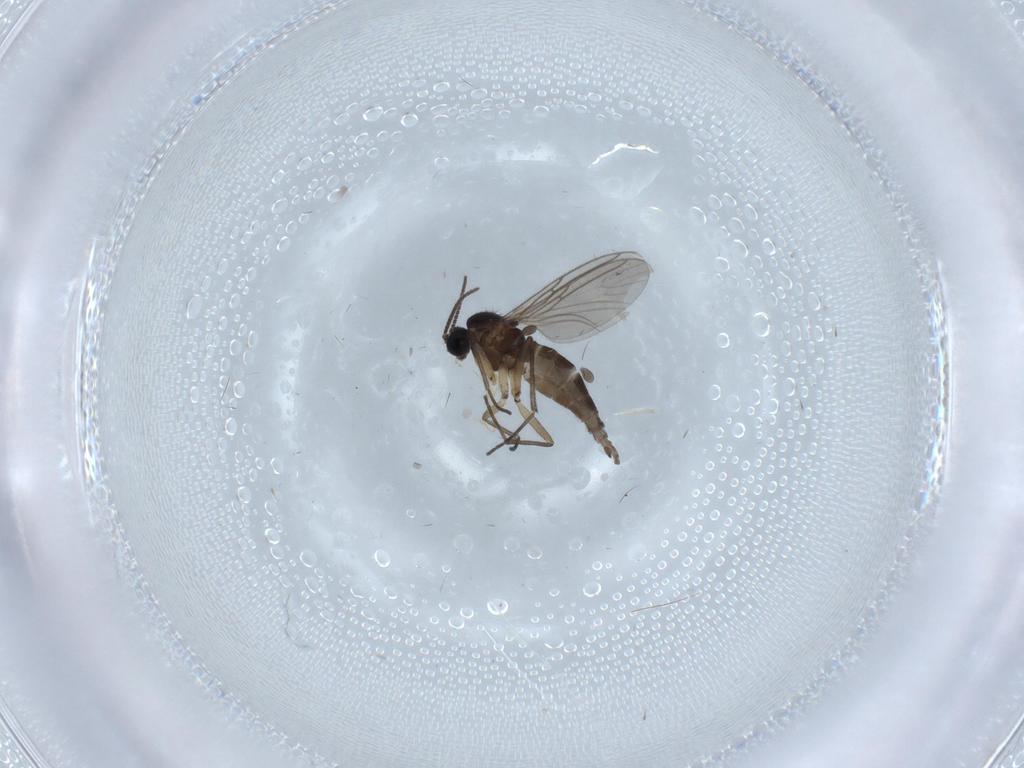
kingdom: Animalia
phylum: Arthropoda
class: Insecta
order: Diptera
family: Sciaridae
